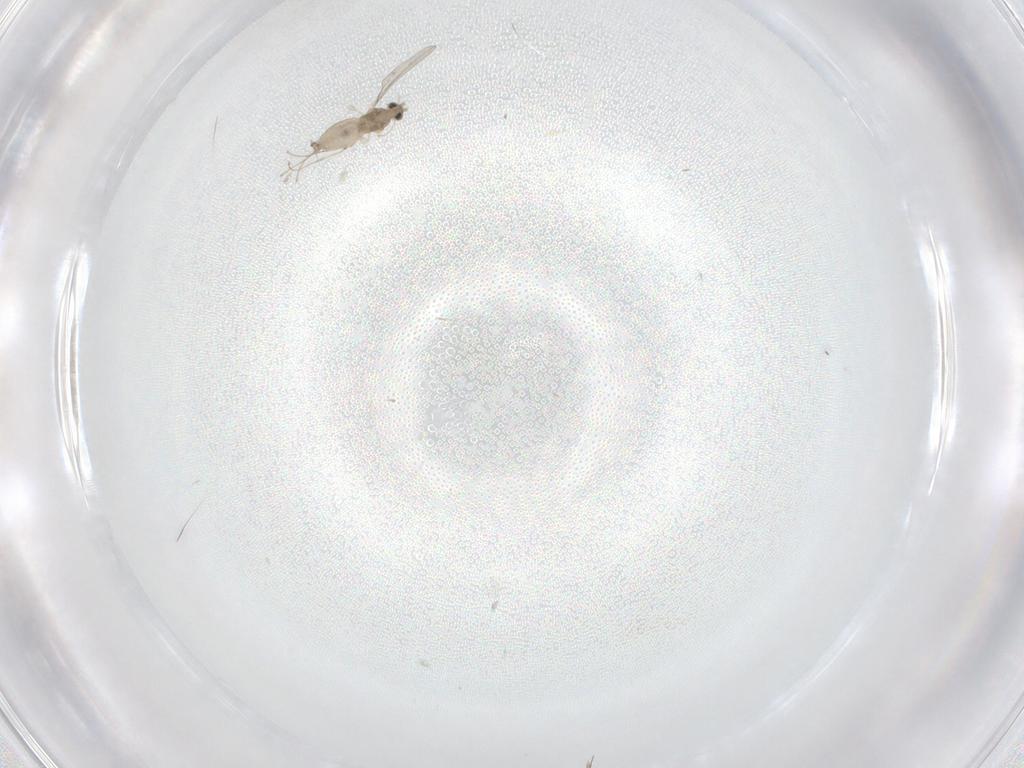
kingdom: Animalia
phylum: Arthropoda
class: Insecta
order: Diptera
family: Cecidomyiidae
